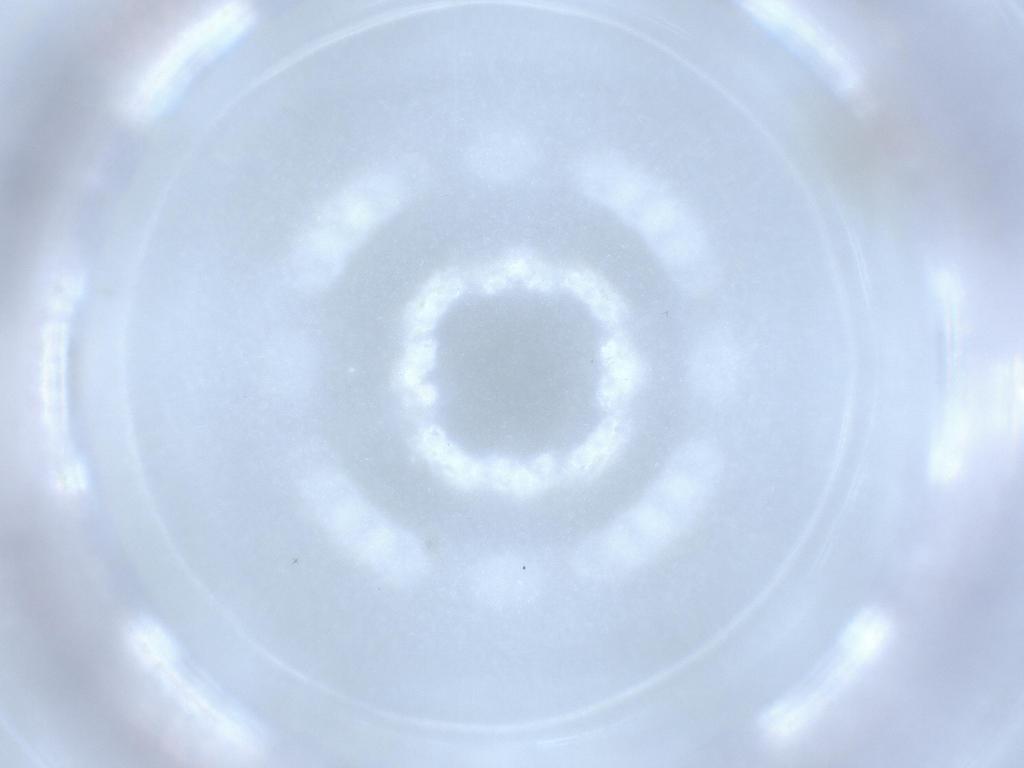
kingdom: Animalia
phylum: Arthropoda
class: Insecta
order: Diptera
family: Cecidomyiidae
